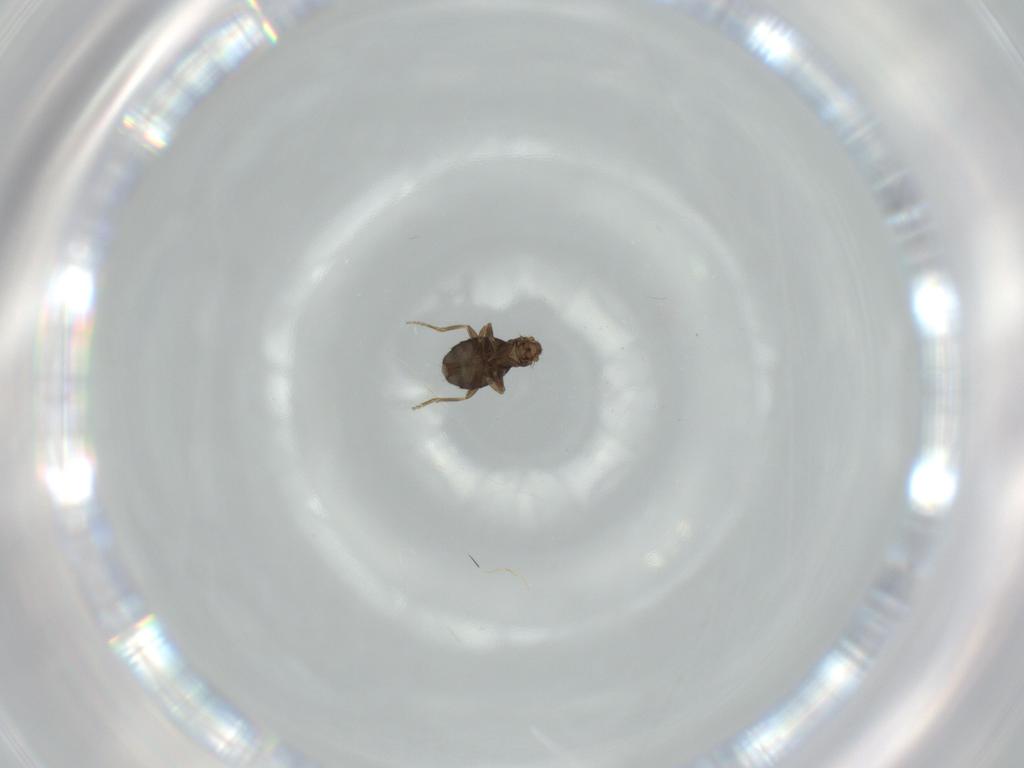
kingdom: Animalia
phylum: Arthropoda
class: Insecta
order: Diptera
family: Phoridae
